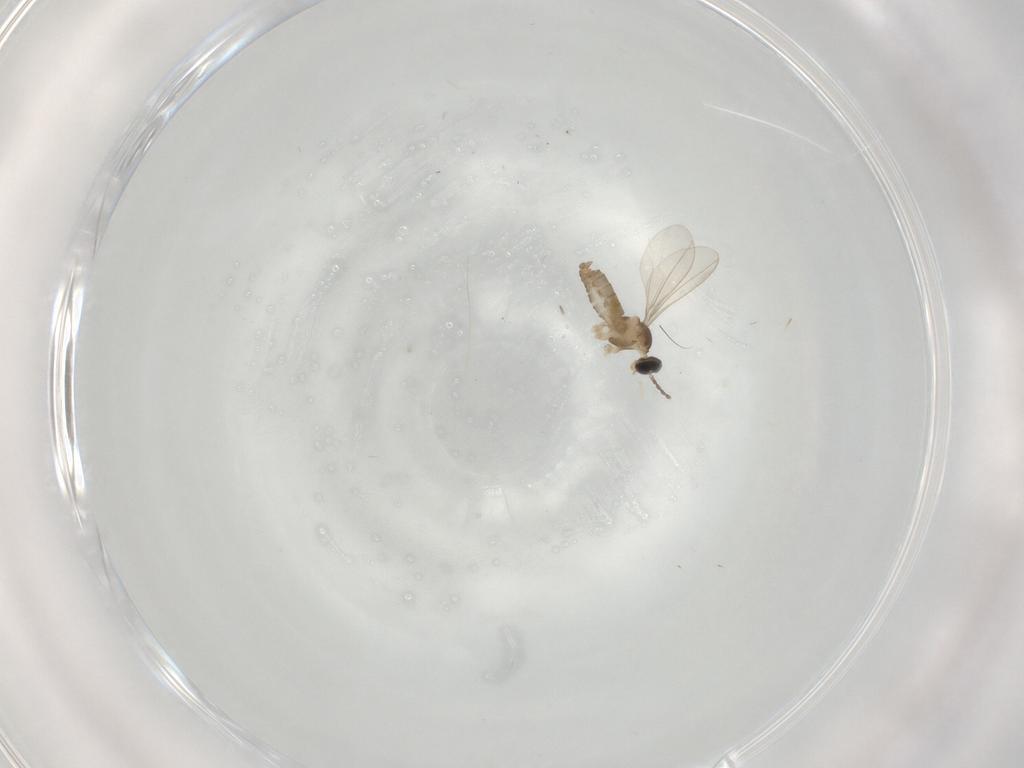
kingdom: Animalia
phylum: Arthropoda
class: Insecta
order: Diptera
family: Cecidomyiidae
